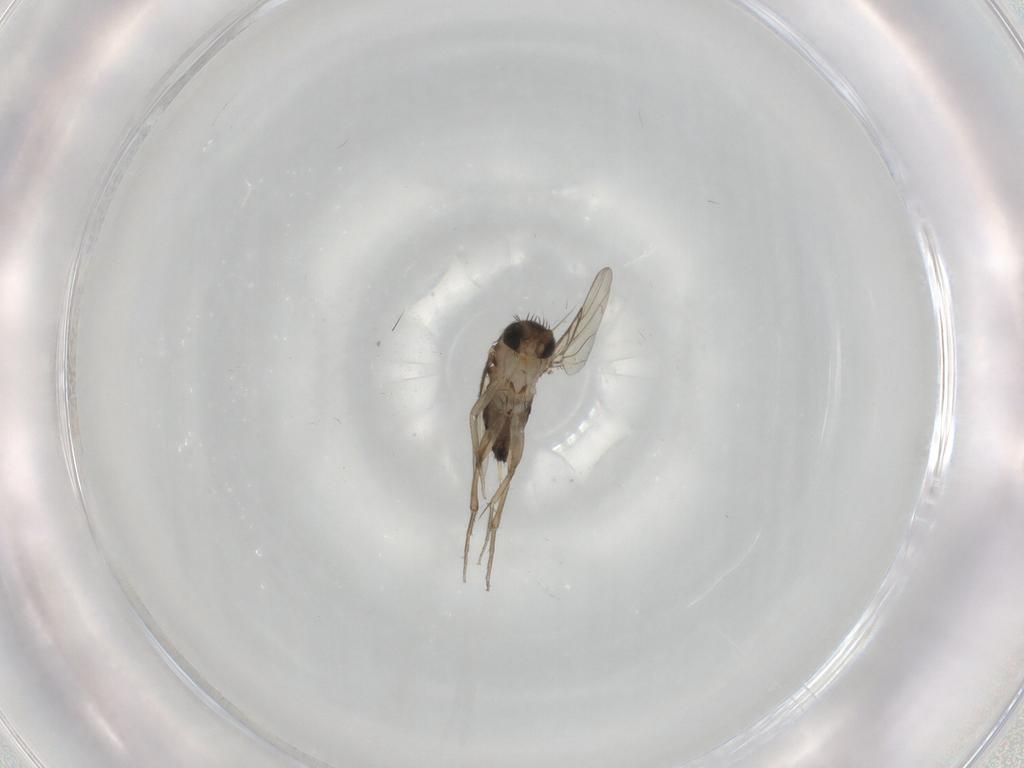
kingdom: Animalia
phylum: Arthropoda
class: Insecta
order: Diptera
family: Phoridae
